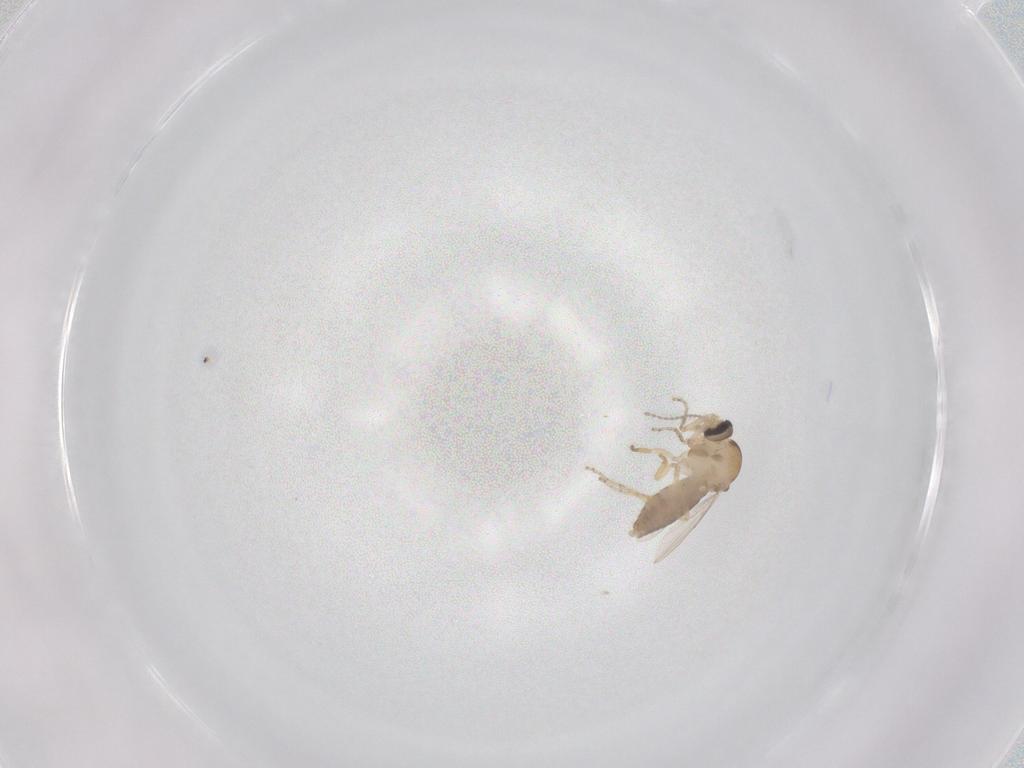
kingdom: Animalia
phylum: Arthropoda
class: Insecta
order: Diptera
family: Ceratopogonidae
